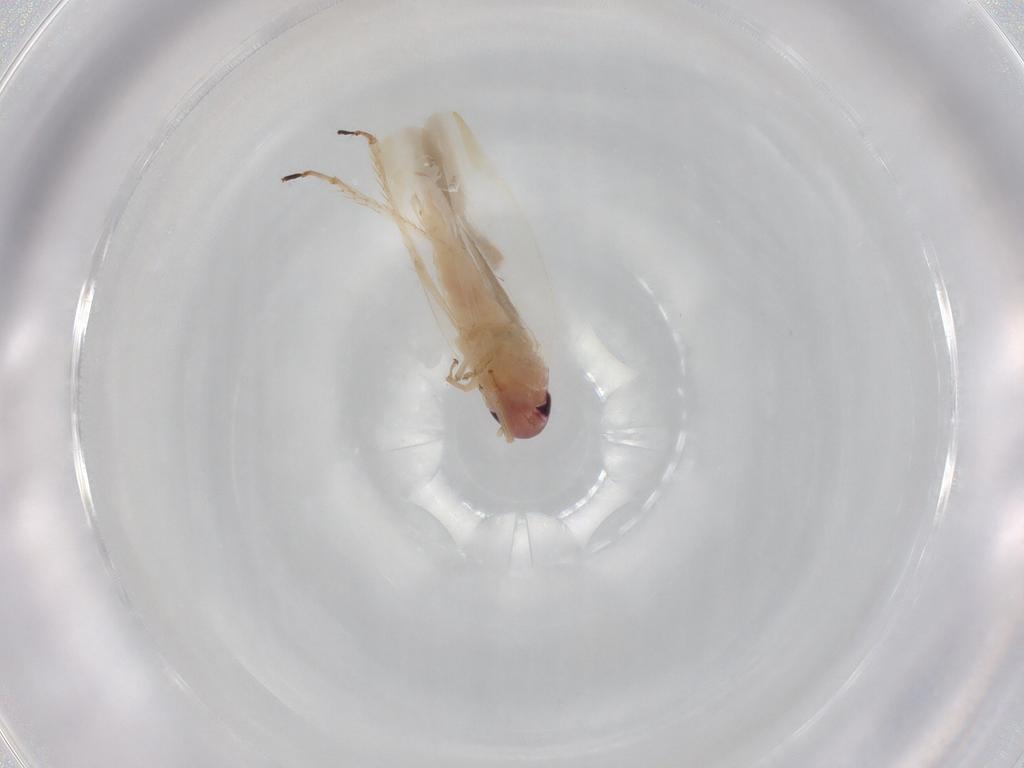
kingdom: Animalia
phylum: Arthropoda
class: Insecta
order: Hemiptera
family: Cicadellidae
